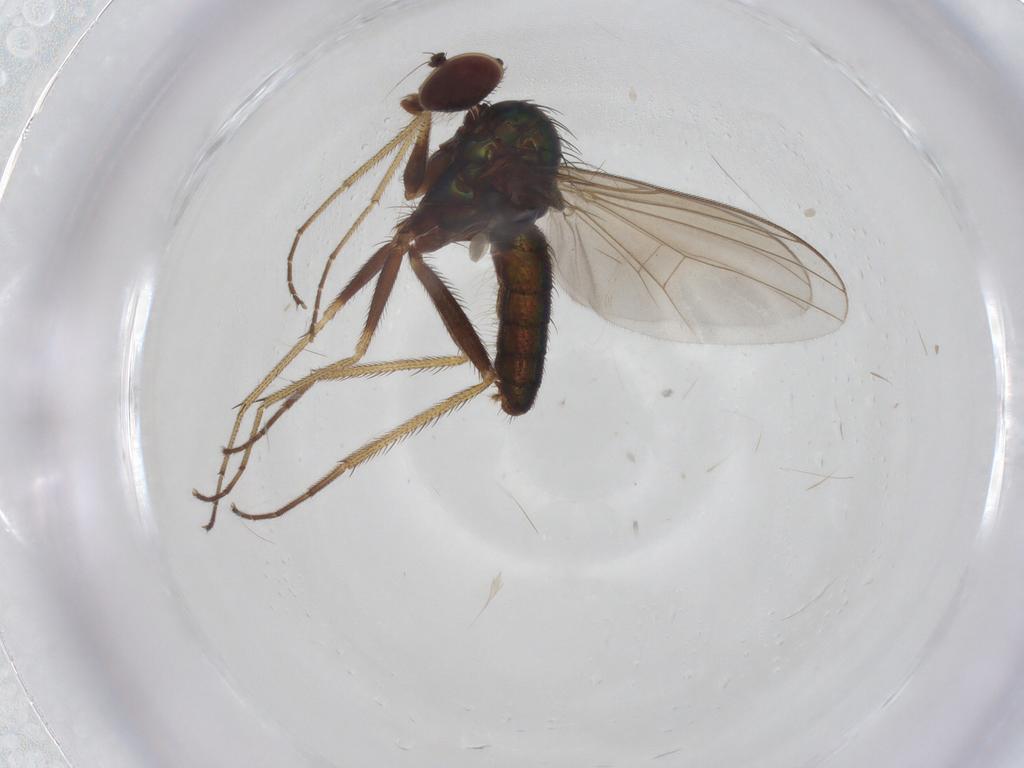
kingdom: Animalia
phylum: Arthropoda
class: Insecta
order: Diptera
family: Dolichopodidae
